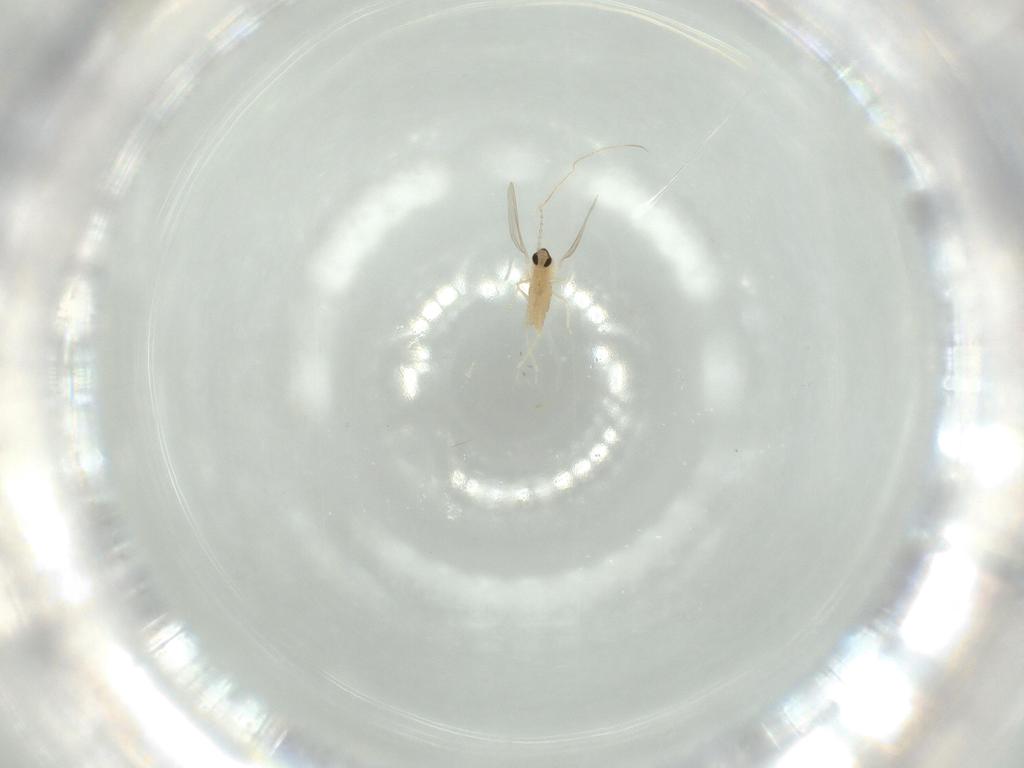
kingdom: Animalia
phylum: Arthropoda
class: Insecta
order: Diptera
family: Cecidomyiidae
